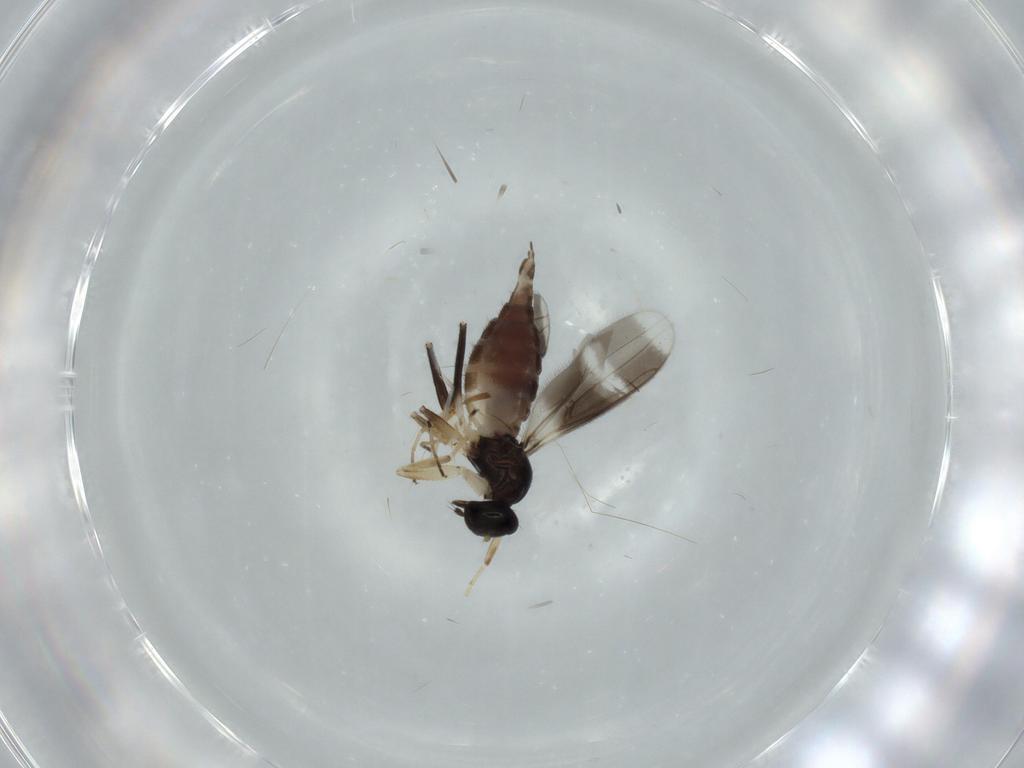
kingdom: Animalia
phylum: Arthropoda
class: Insecta
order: Diptera
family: Hybotidae
